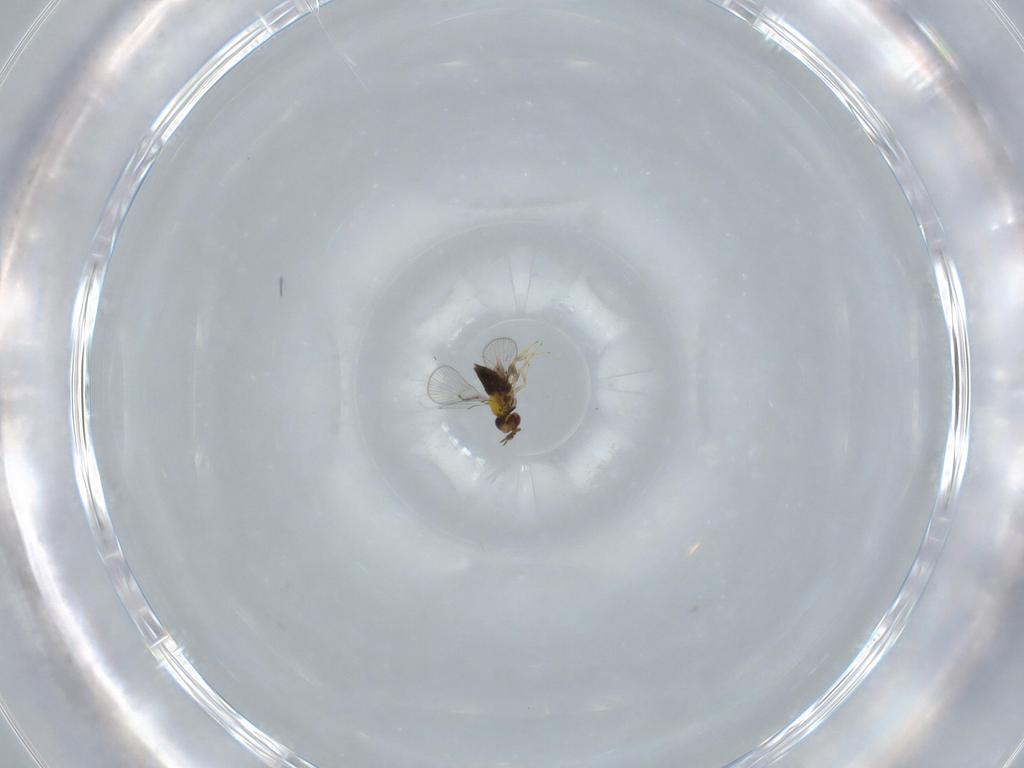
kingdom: Animalia
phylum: Arthropoda
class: Insecta
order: Hymenoptera
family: Trichogrammatidae
